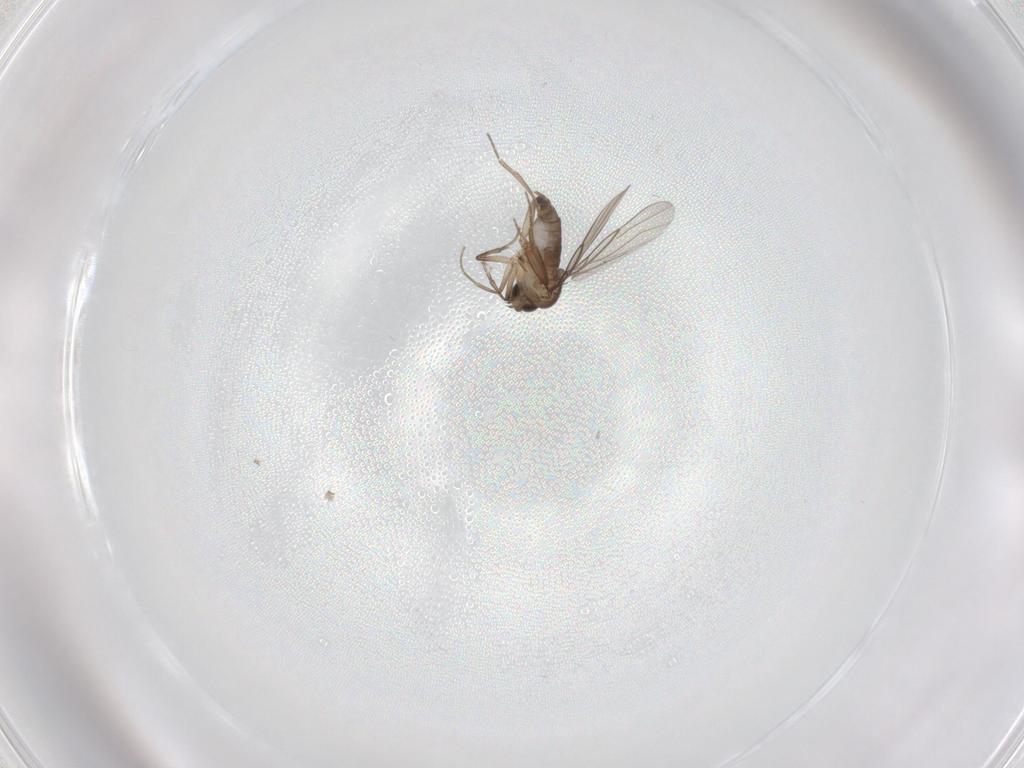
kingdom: Animalia
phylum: Arthropoda
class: Insecta
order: Diptera
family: Phoridae
